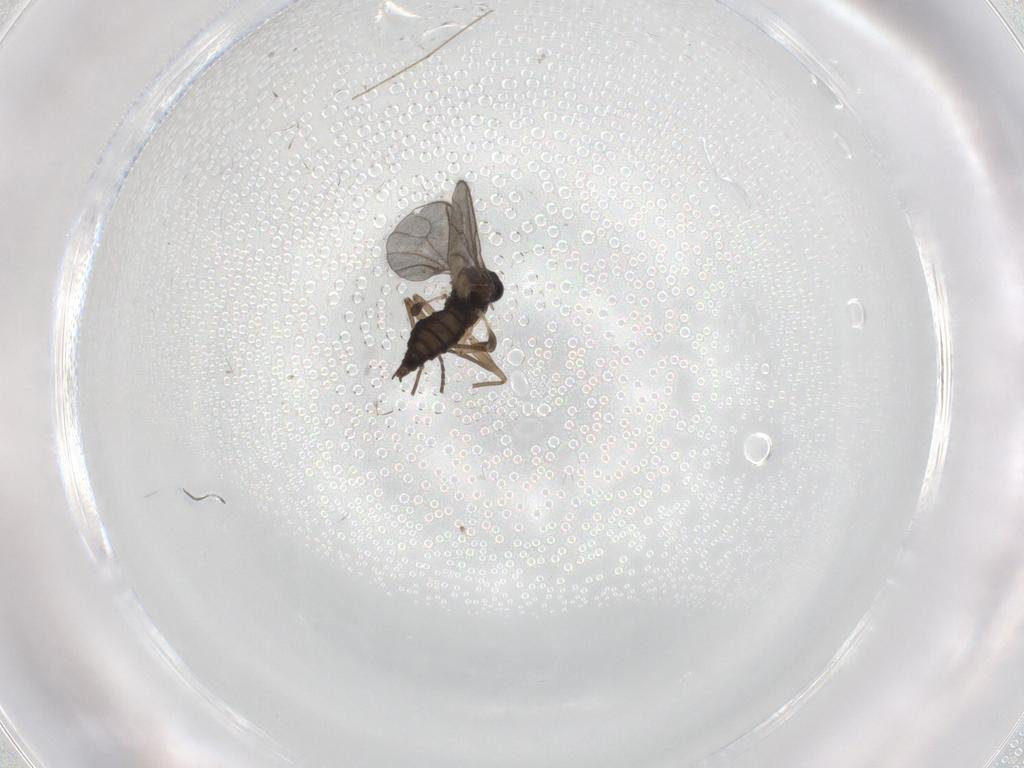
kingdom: Animalia
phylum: Arthropoda
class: Insecta
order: Diptera
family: Sciaridae
